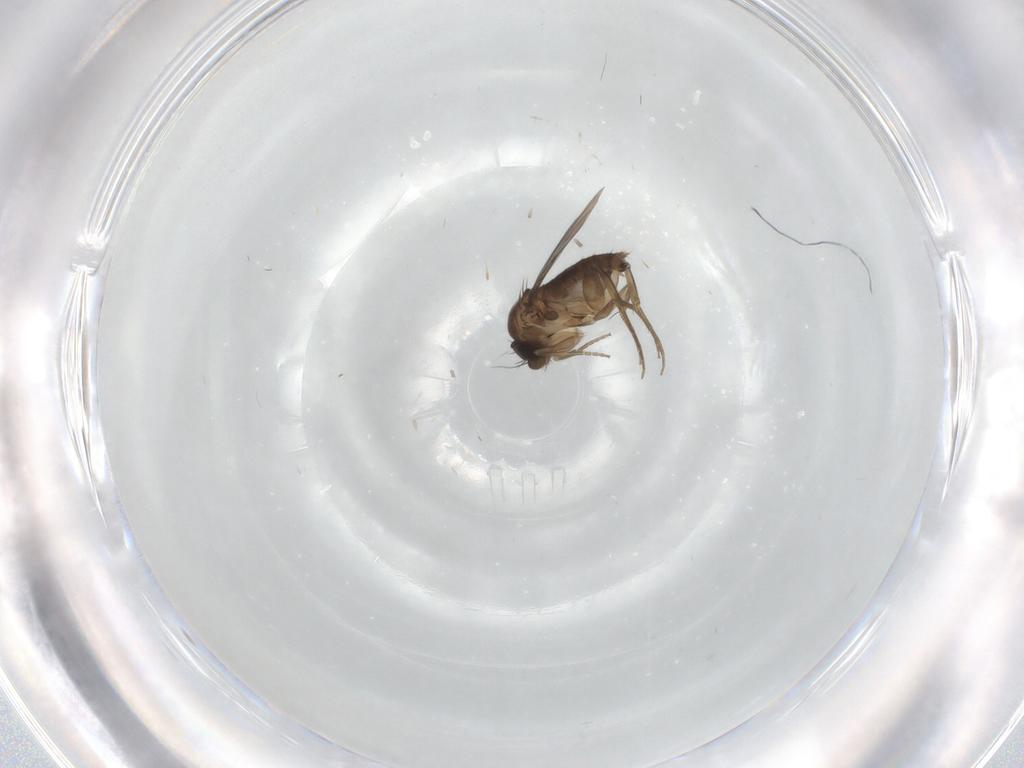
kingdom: Animalia
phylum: Arthropoda
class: Insecta
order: Diptera
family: Phoridae
